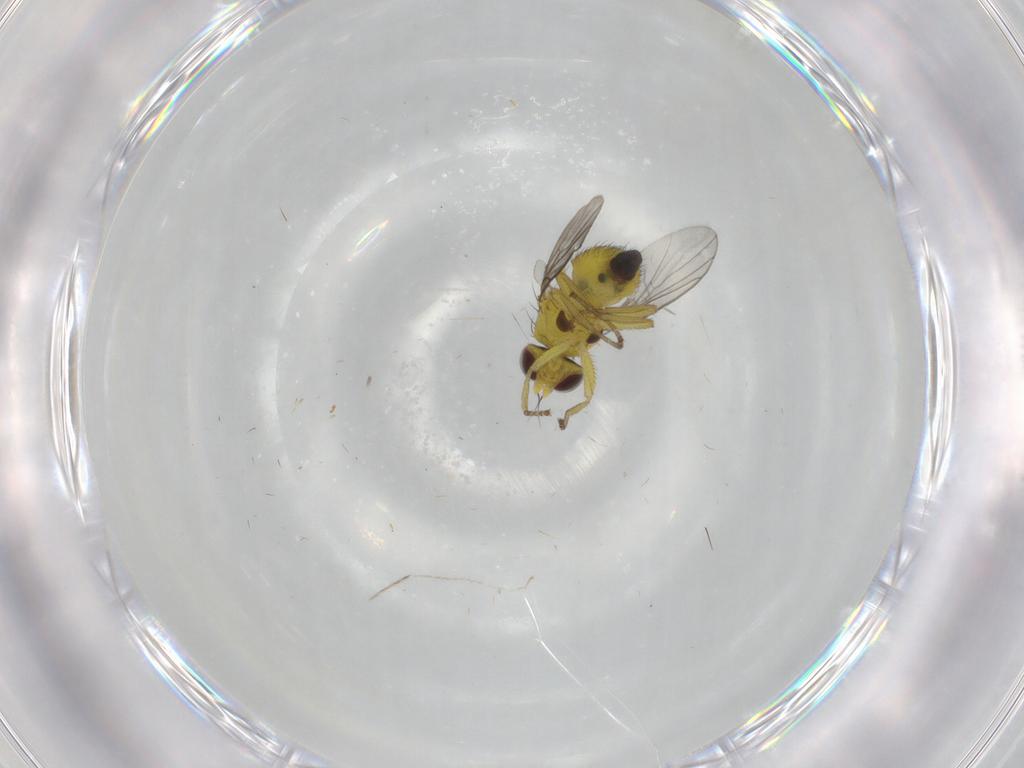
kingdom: Animalia
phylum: Arthropoda
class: Insecta
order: Diptera
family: Cecidomyiidae
